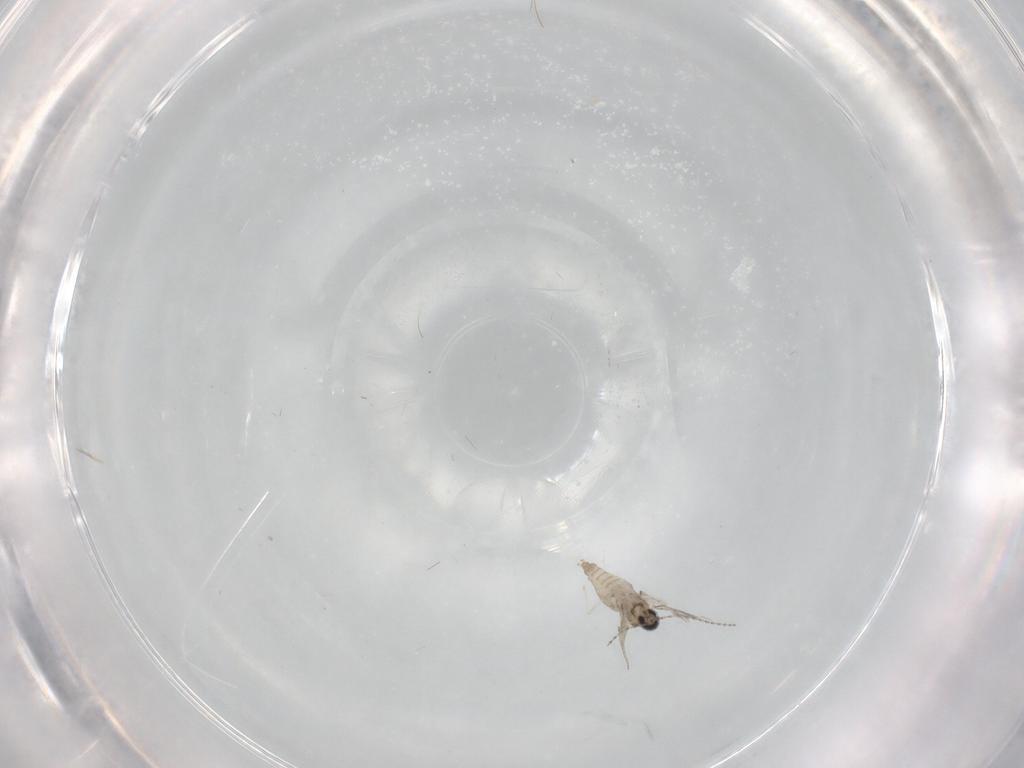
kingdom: Animalia
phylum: Arthropoda
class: Insecta
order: Diptera
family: Cecidomyiidae
